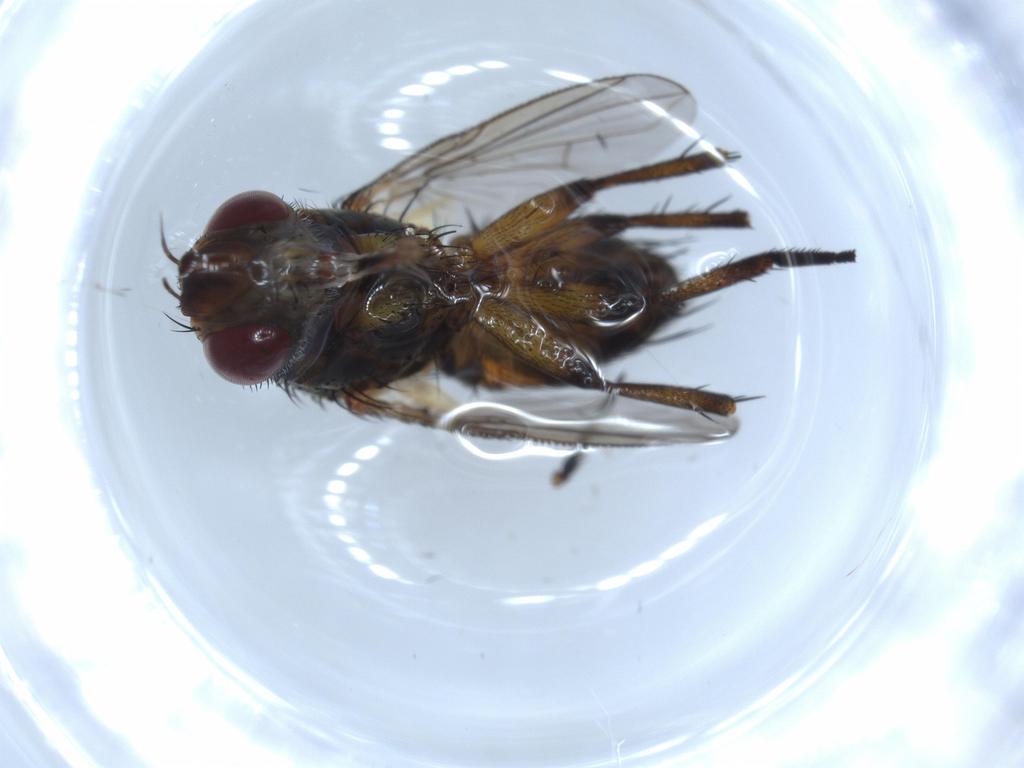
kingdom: Animalia
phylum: Arthropoda
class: Insecta
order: Diptera
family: Tachinidae
